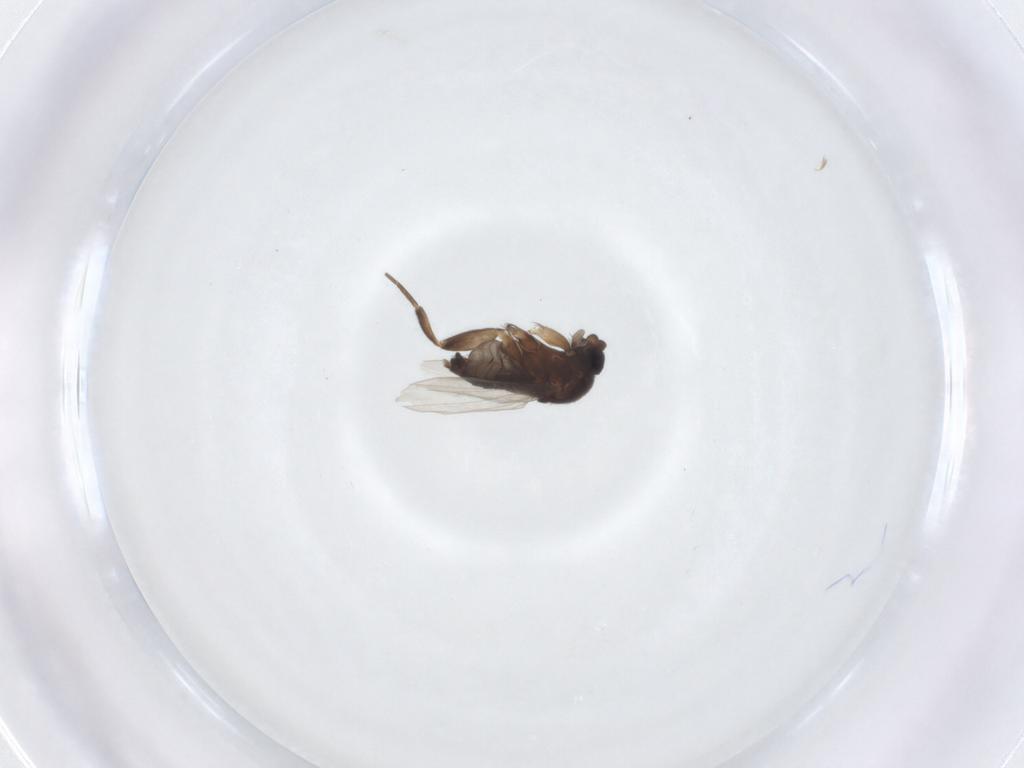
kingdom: Animalia
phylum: Arthropoda
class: Insecta
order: Diptera
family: Phoridae
